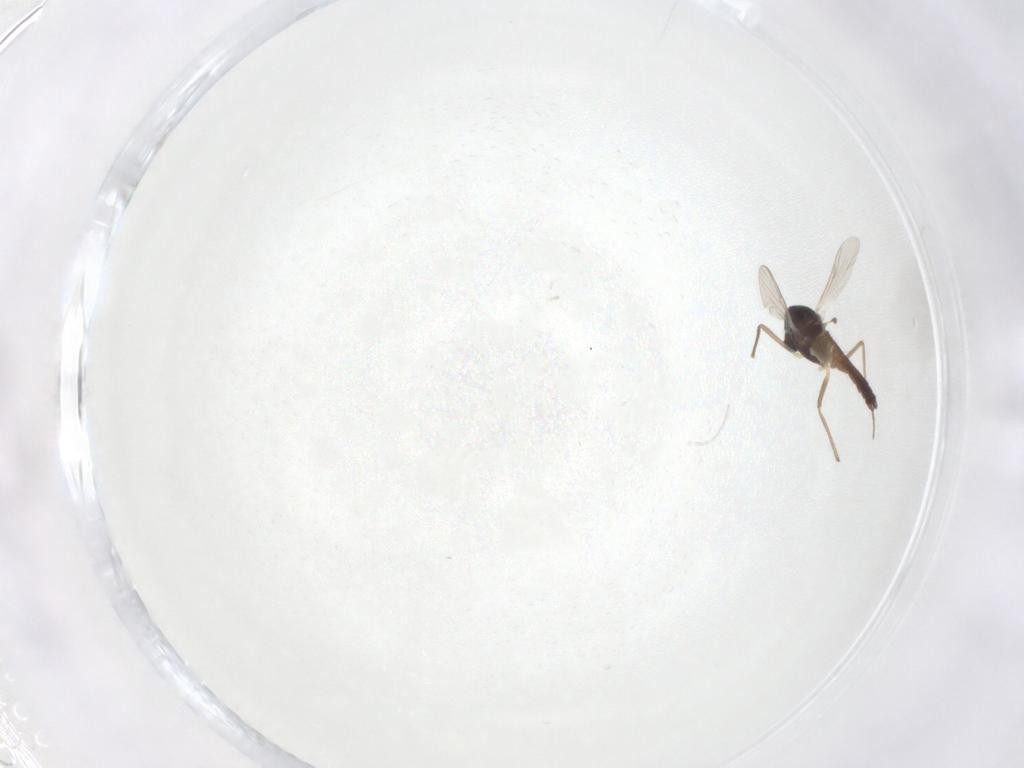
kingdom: Animalia
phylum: Arthropoda
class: Insecta
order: Diptera
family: Chironomidae
